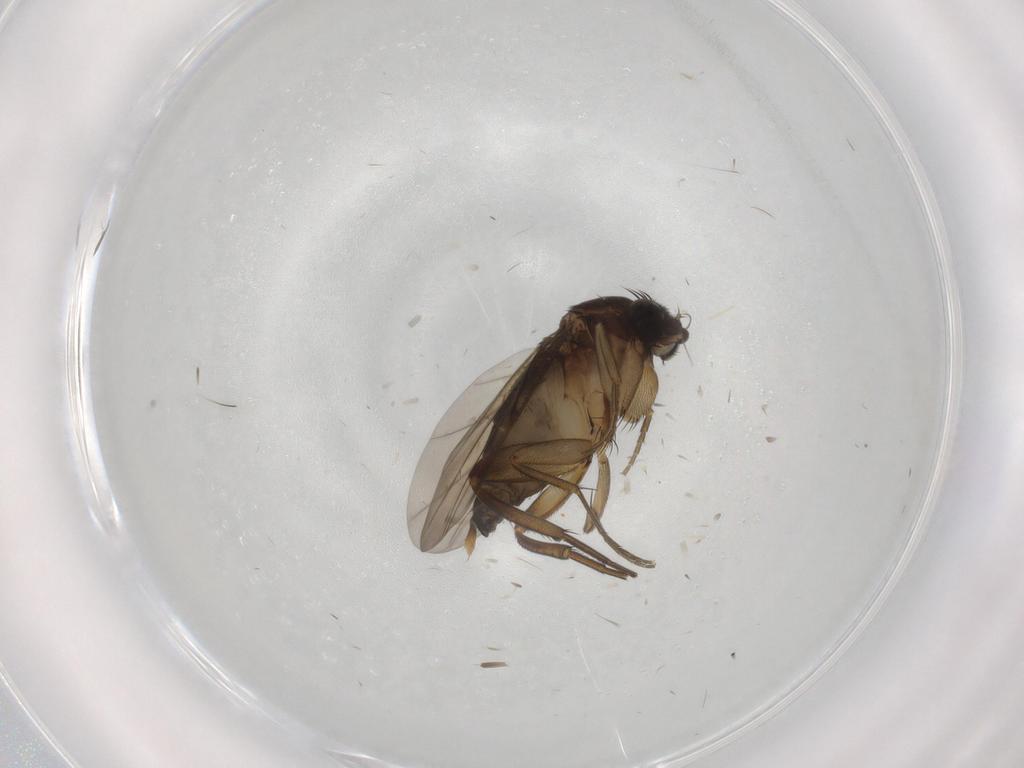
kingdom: Animalia
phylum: Arthropoda
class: Insecta
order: Diptera
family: Phoridae
